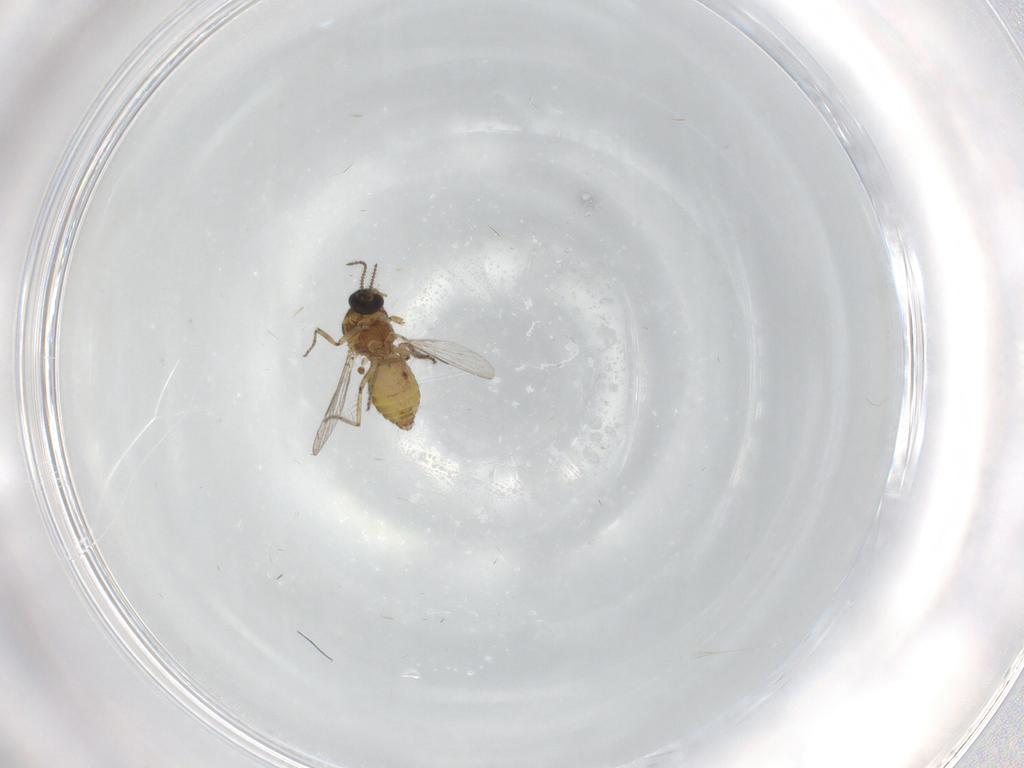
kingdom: Animalia
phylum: Arthropoda
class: Insecta
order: Diptera
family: Ceratopogonidae
